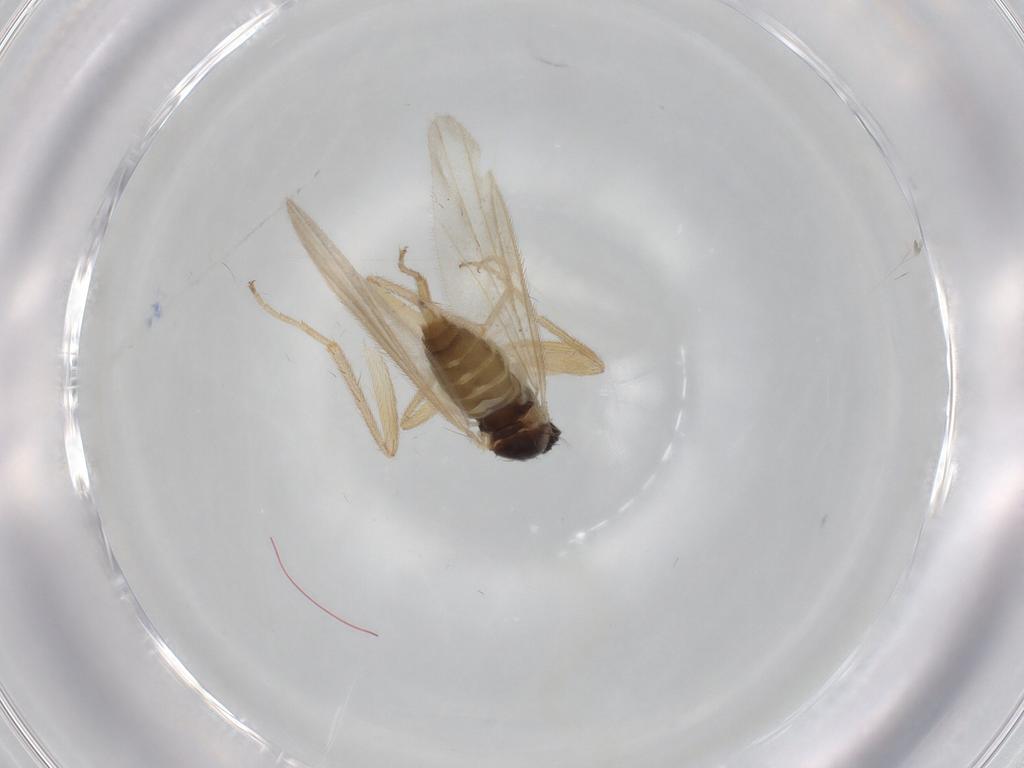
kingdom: Animalia
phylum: Arthropoda
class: Insecta
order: Diptera
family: Hybotidae
